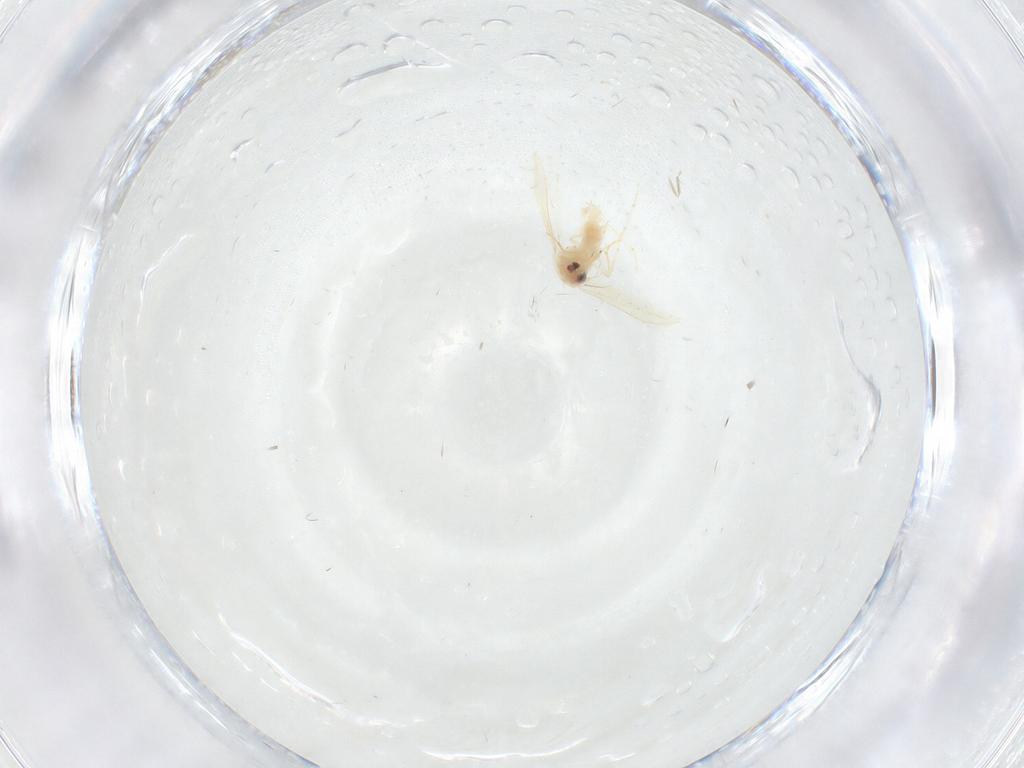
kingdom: Animalia
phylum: Arthropoda
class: Insecta
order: Hemiptera
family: Aleyrodidae
